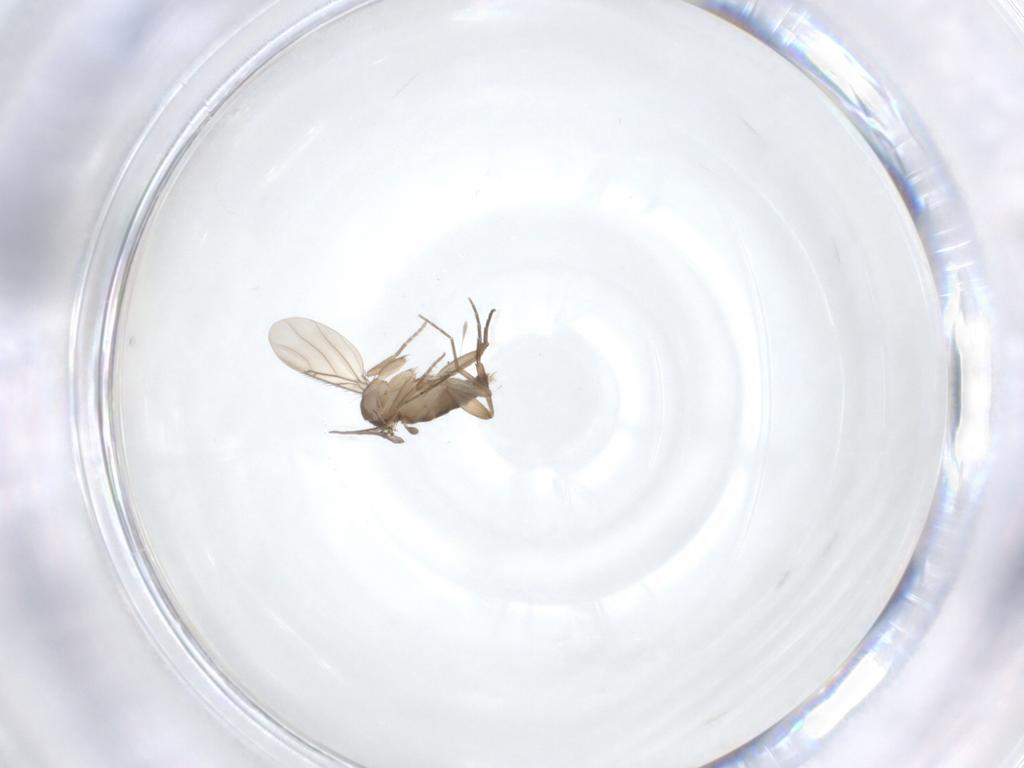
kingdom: Animalia
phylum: Arthropoda
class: Insecta
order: Diptera
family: Phoridae
